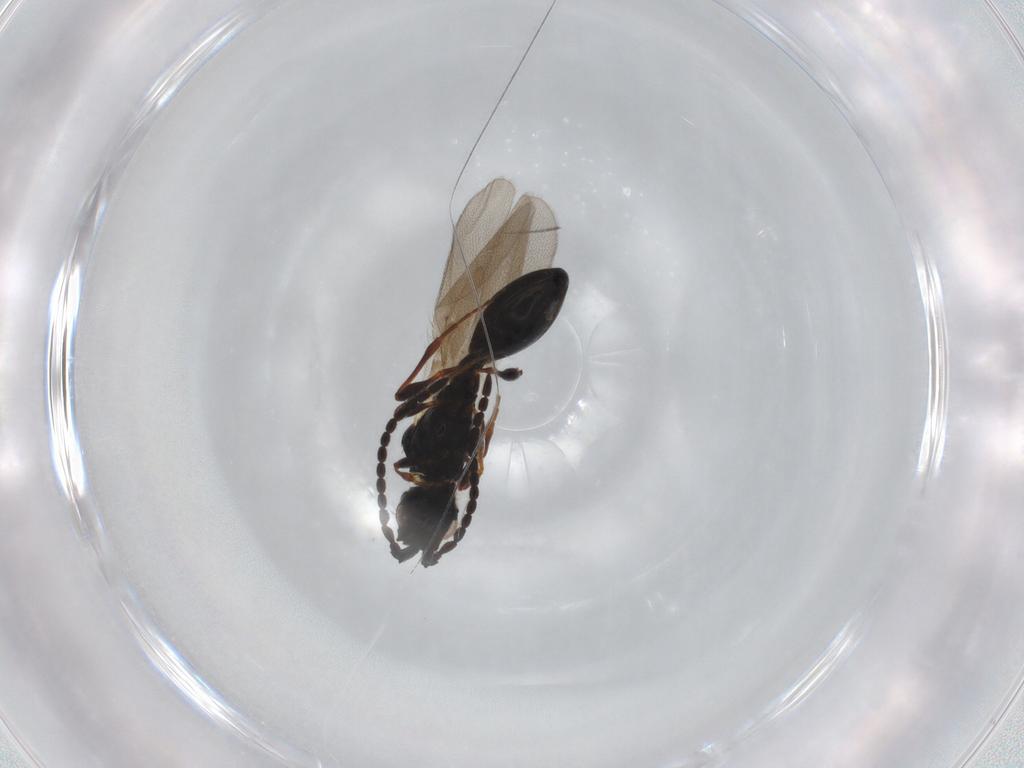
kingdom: Animalia
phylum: Arthropoda
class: Insecta
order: Hymenoptera
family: Diapriidae
